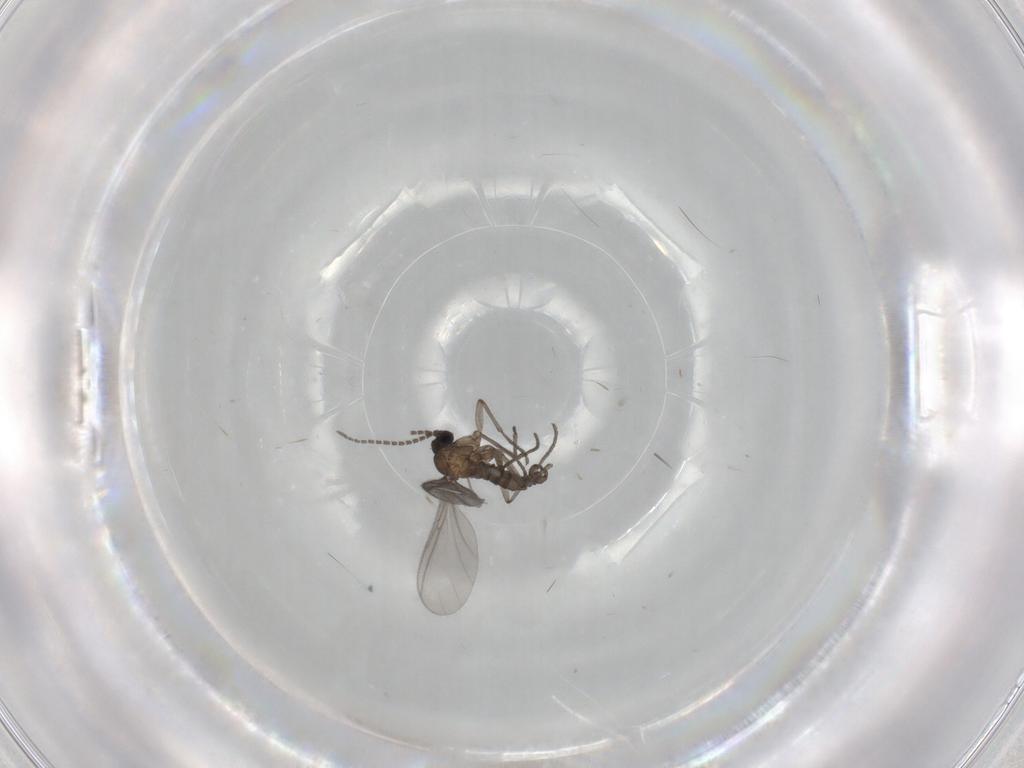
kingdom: Animalia
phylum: Arthropoda
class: Insecta
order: Diptera
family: Sciaridae
